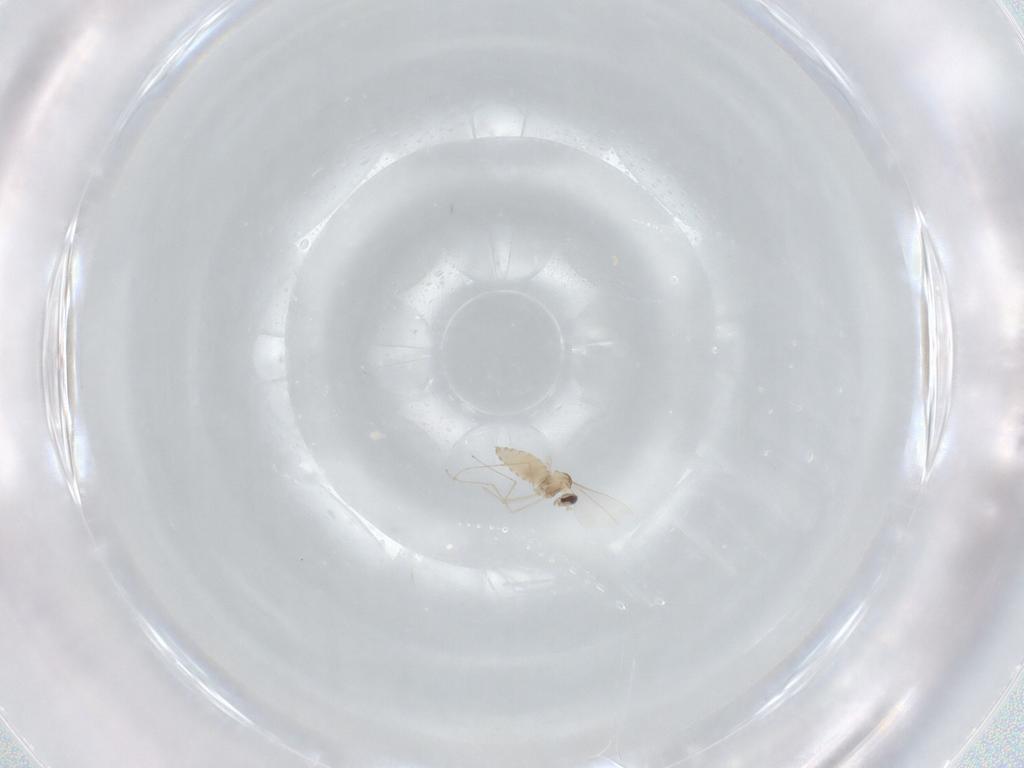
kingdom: Animalia
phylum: Arthropoda
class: Insecta
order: Diptera
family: Cecidomyiidae
